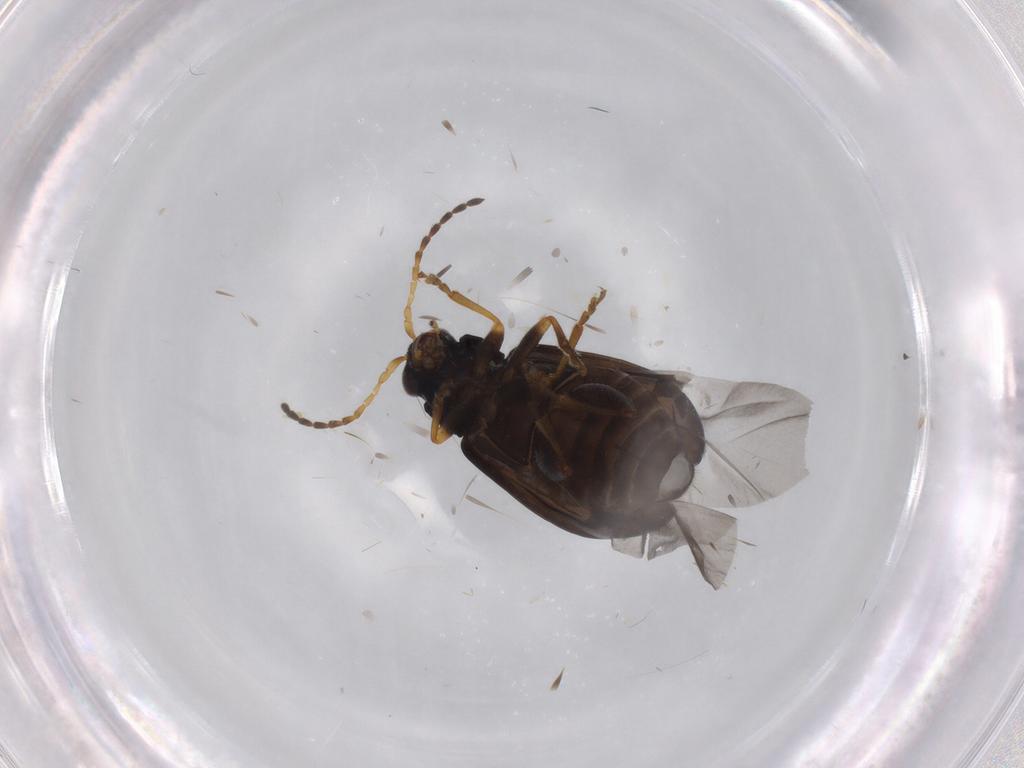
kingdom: Animalia
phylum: Arthropoda
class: Insecta
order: Coleoptera
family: Chrysomelidae
